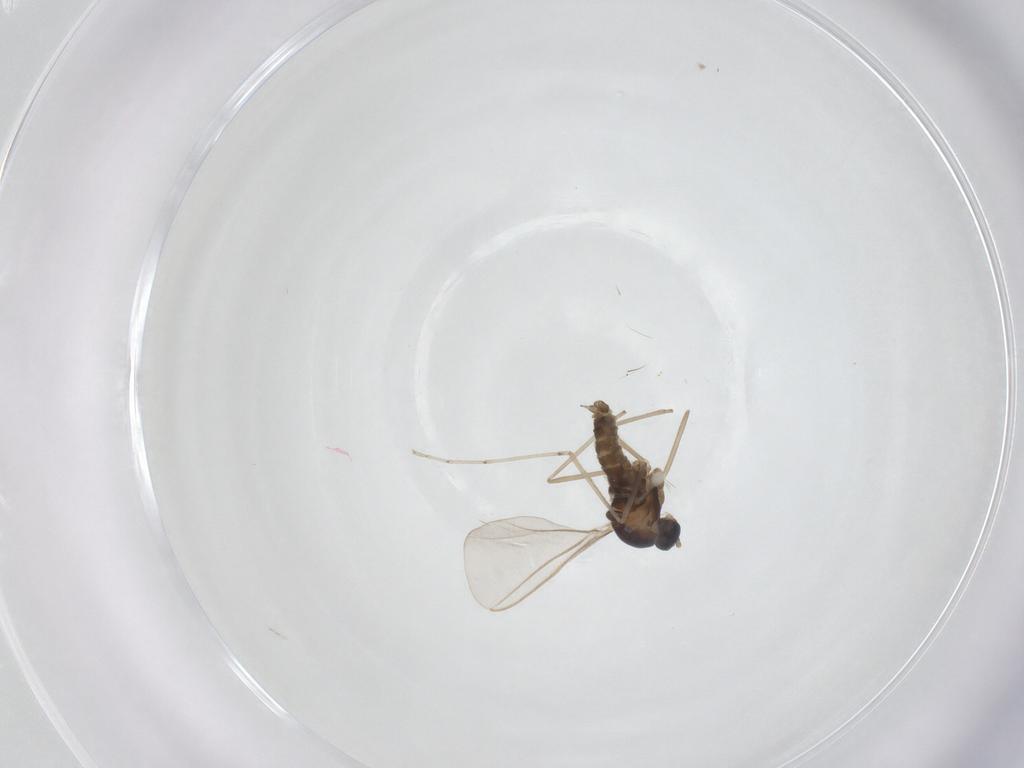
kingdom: Animalia
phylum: Arthropoda
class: Insecta
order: Diptera
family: Cecidomyiidae
